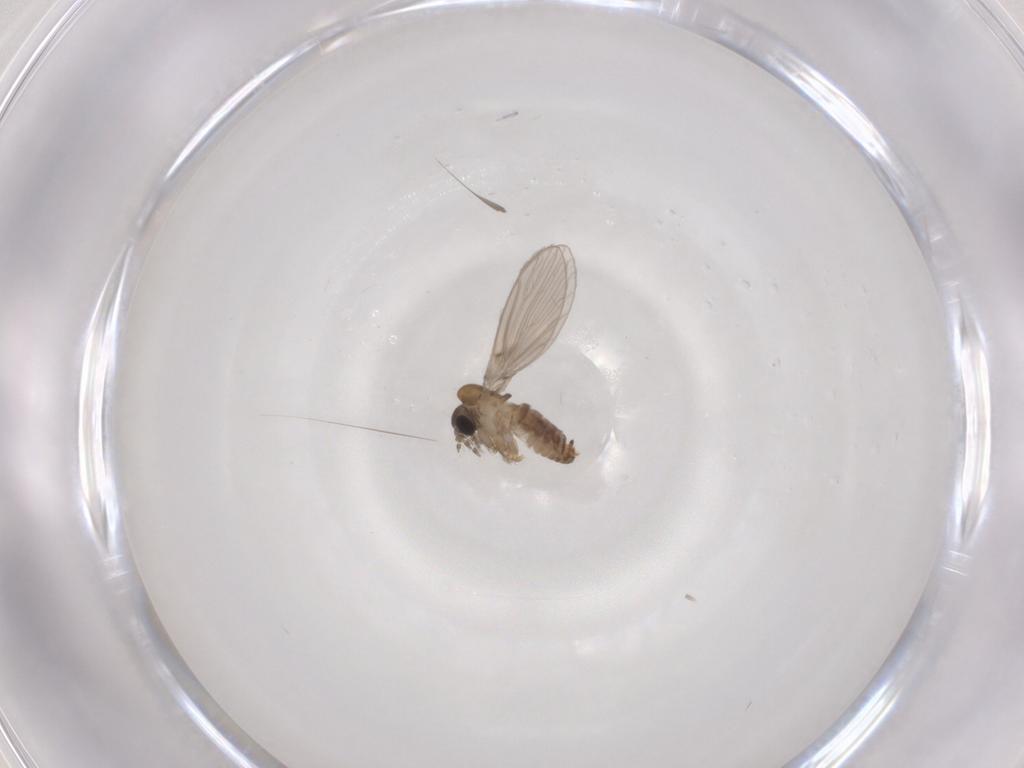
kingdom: Animalia
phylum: Arthropoda
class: Insecta
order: Diptera
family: Psychodidae
